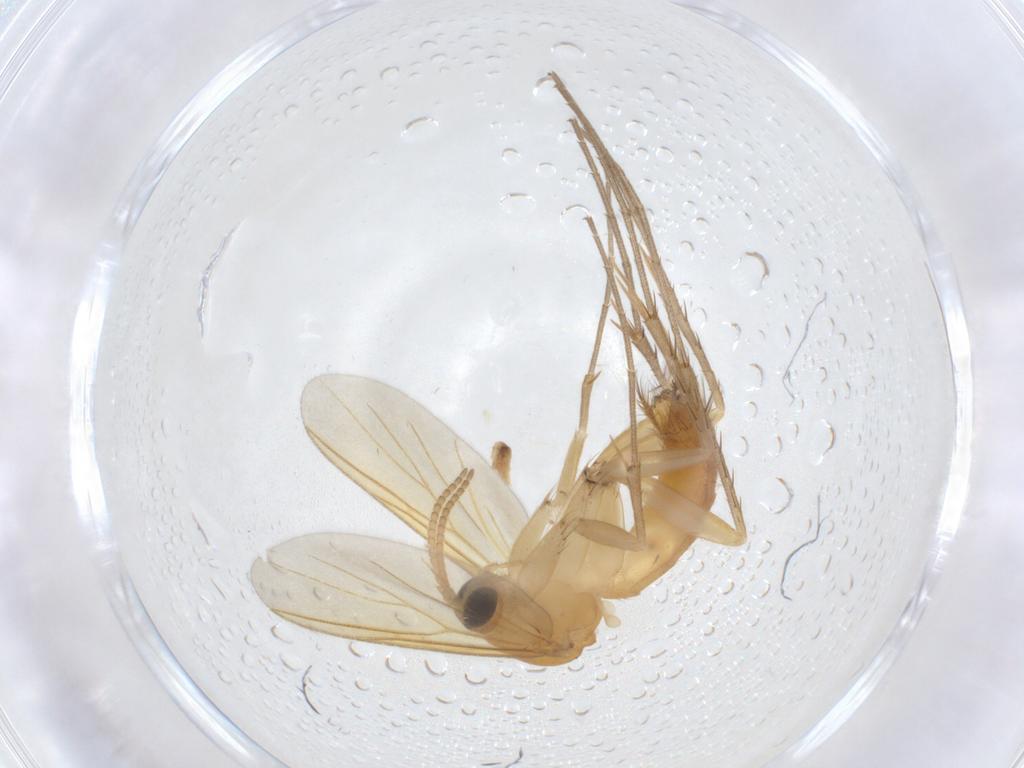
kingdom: Animalia
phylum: Arthropoda
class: Insecta
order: Diptera
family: Mycetophilidae
